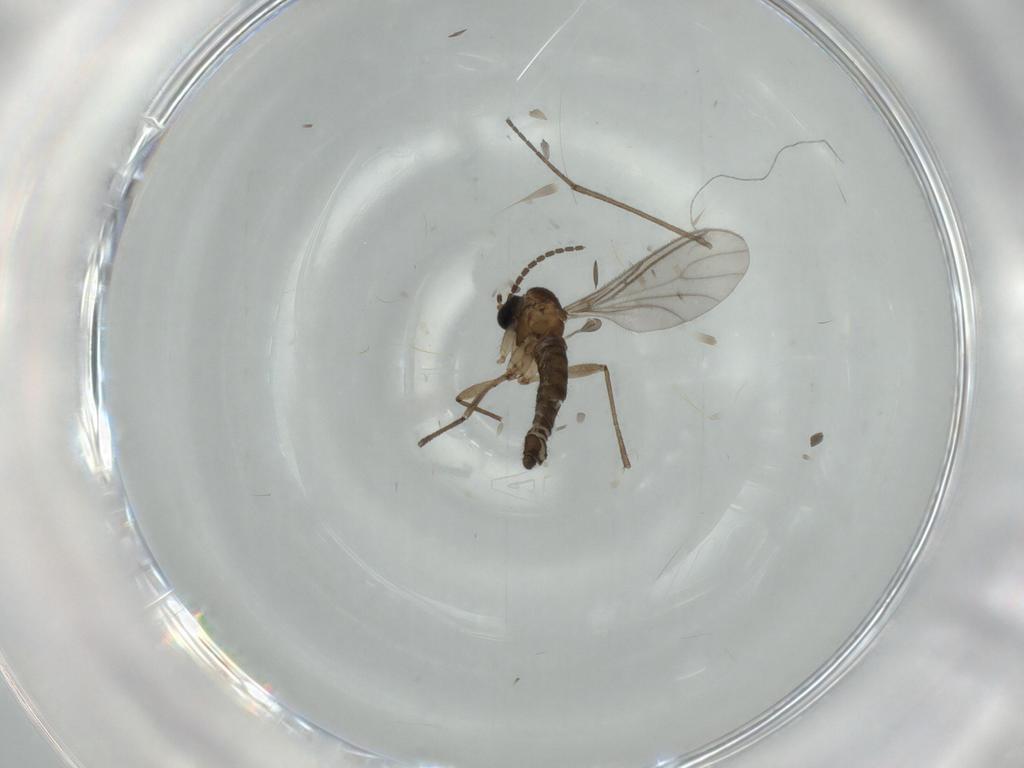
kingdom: Animalia
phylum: Arthropoda
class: Insecta
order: Diptera
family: Sciaridae
